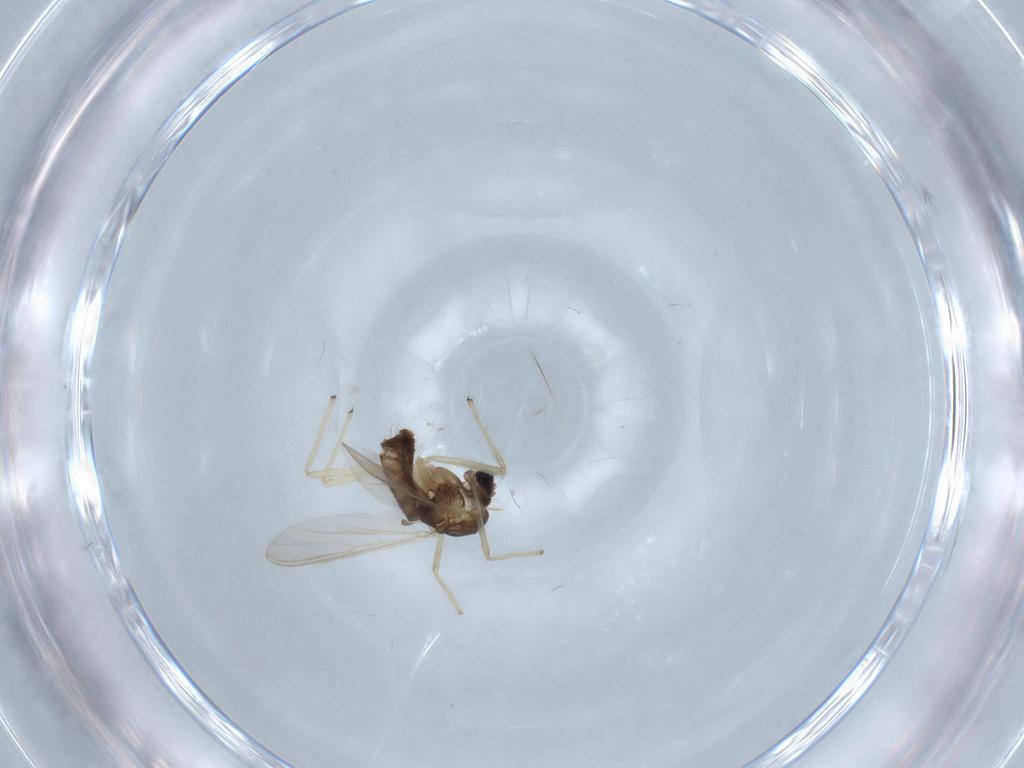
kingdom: Animalia
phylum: Arthropoda
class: Insecta
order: Diptera
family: Chironomidae
